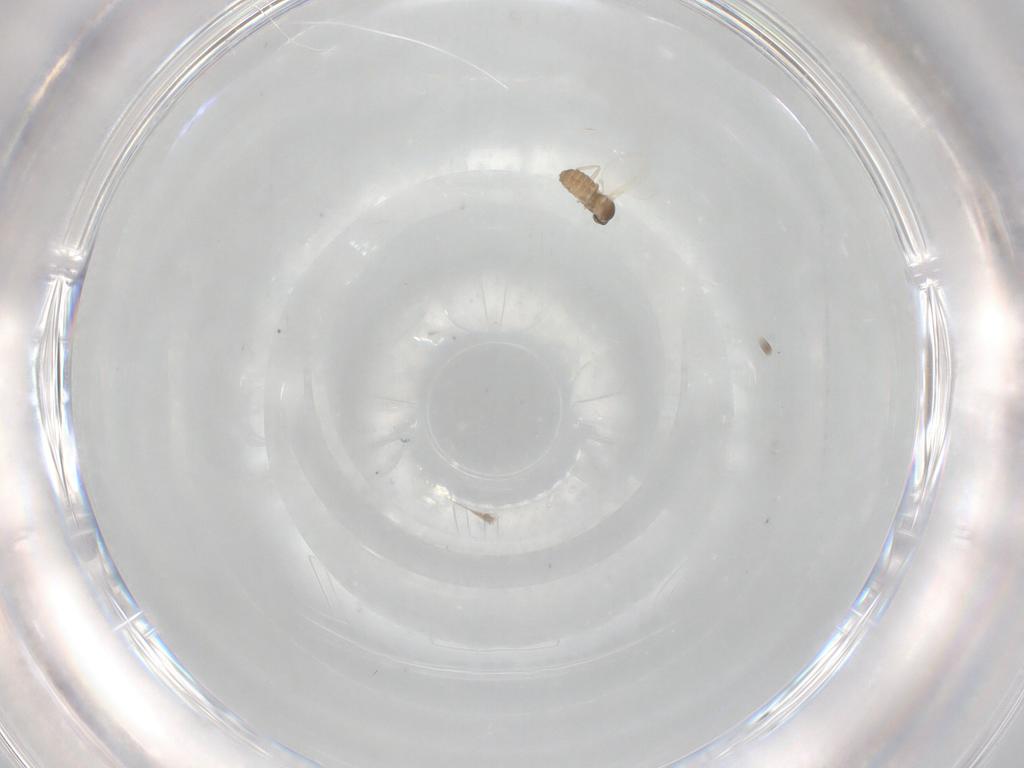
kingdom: Animalia
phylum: Arthropoda
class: Insecta
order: Diptera
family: Cecidomyiidae
